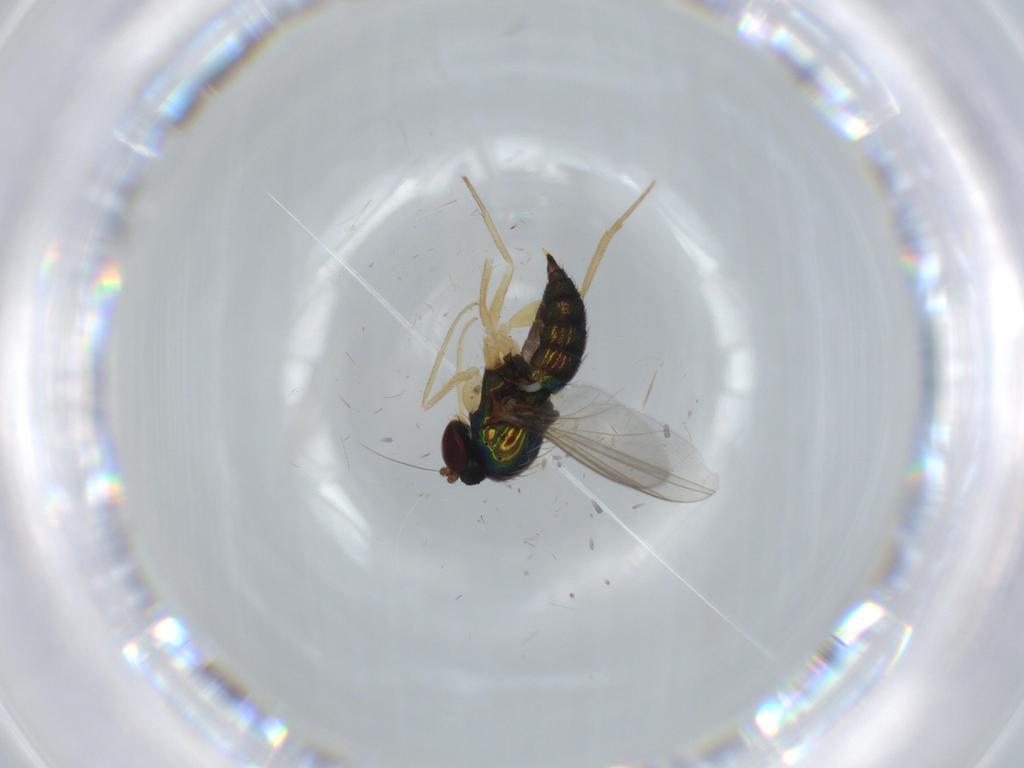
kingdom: Animalia
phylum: Arthropoda
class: Insecta
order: Diptera
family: Dolichopodidae
